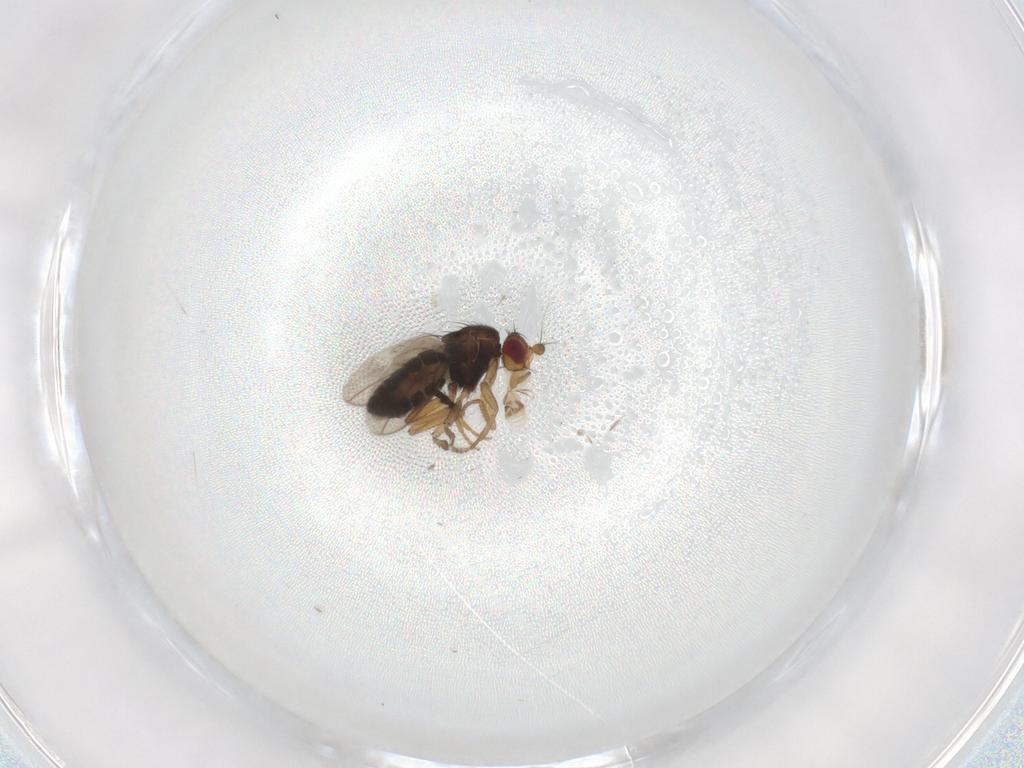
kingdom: Animalia
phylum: Arthropoda
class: Insecta
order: Diptera
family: Sphaeroceridae
